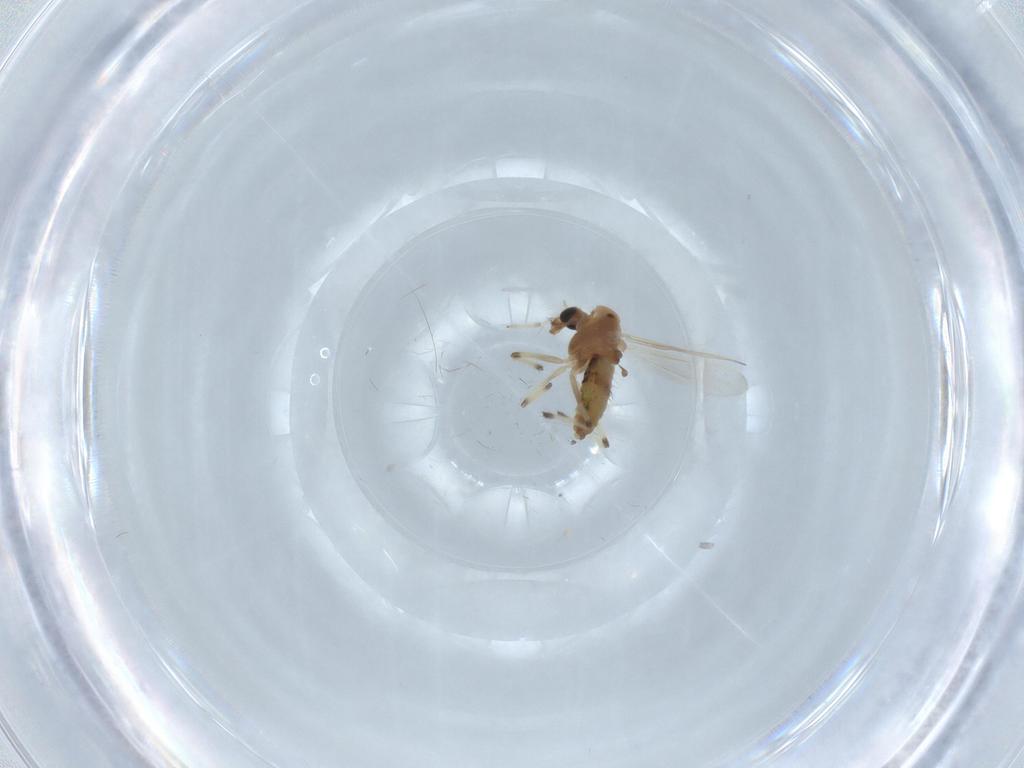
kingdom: Animalia
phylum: Arthropoda
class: Insecta
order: Diptera
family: Chironomidae
